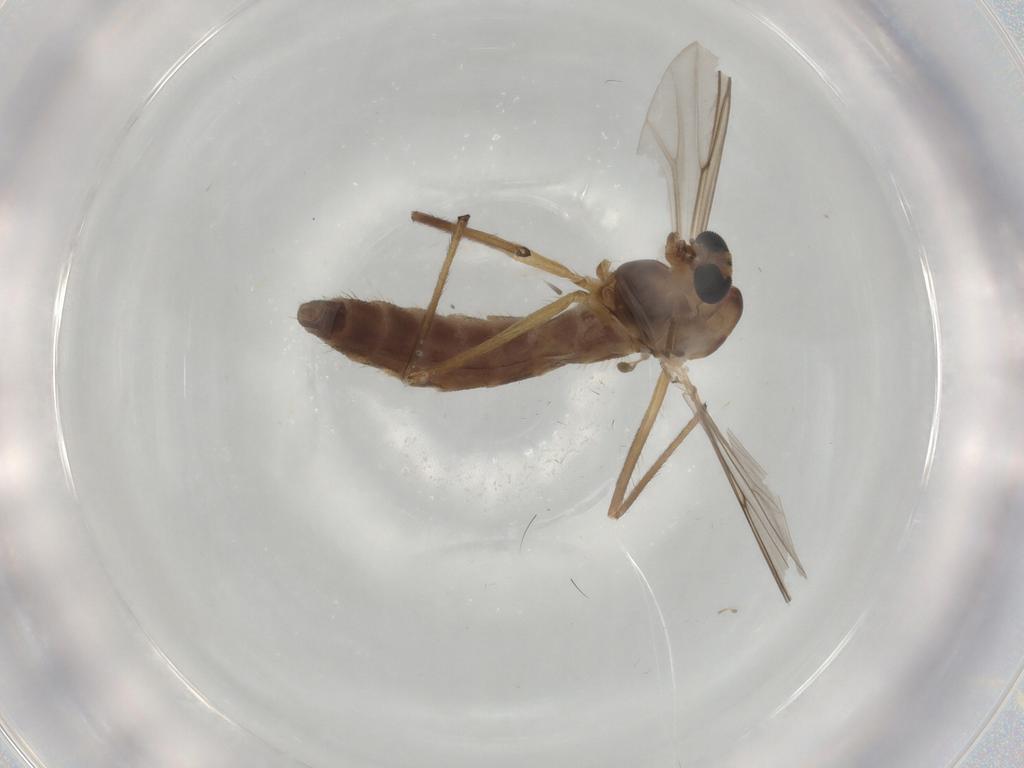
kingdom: Animalia
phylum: Arthropoda
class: Insecta
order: Diptera
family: Chironomidae
